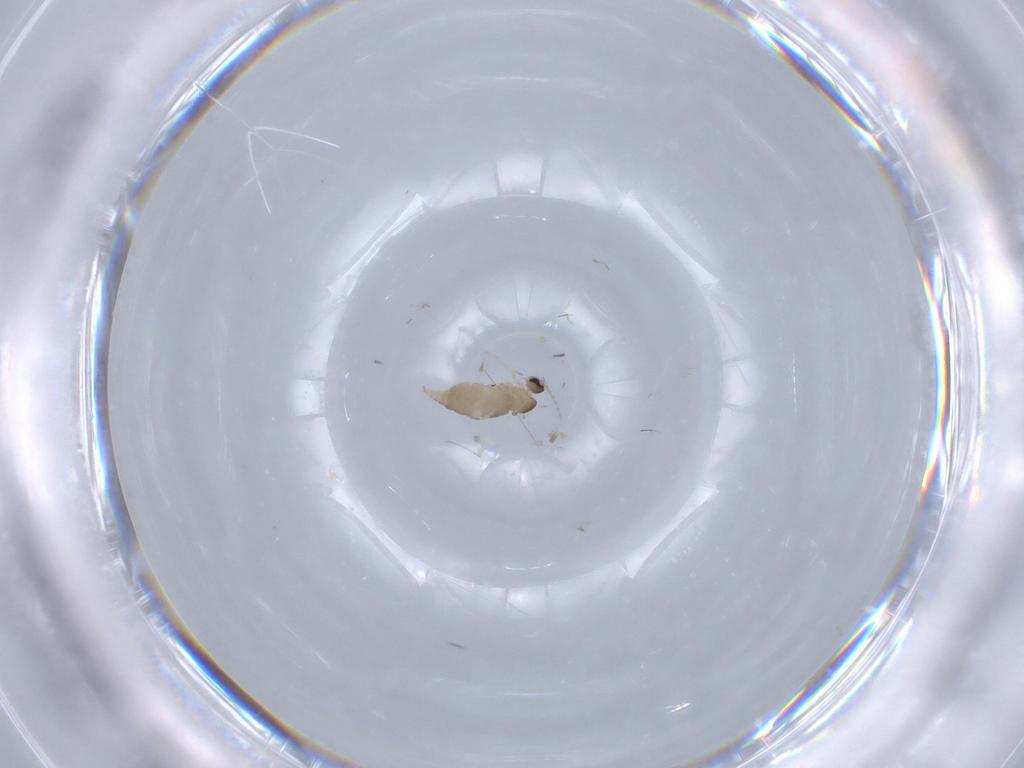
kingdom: Animalia
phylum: Arthropoda
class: Insecta
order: Diptera
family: Cecidomyiidae
